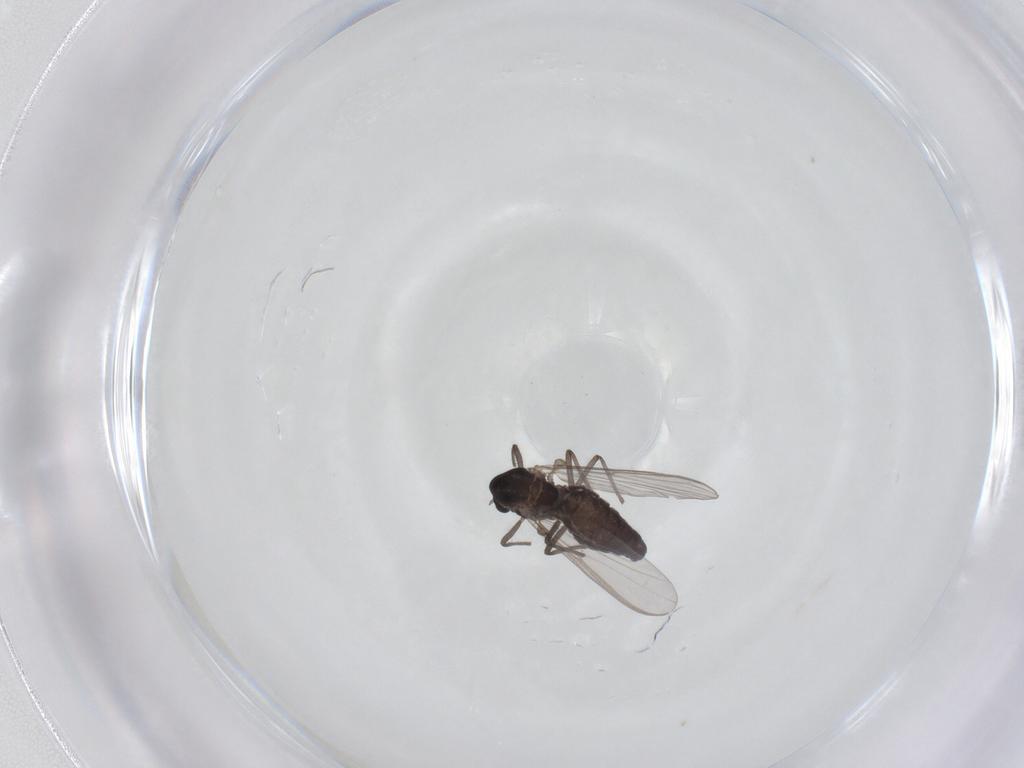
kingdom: Animalia
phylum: Arthropoda
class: Insecta
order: Diptera
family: Chironomidae
